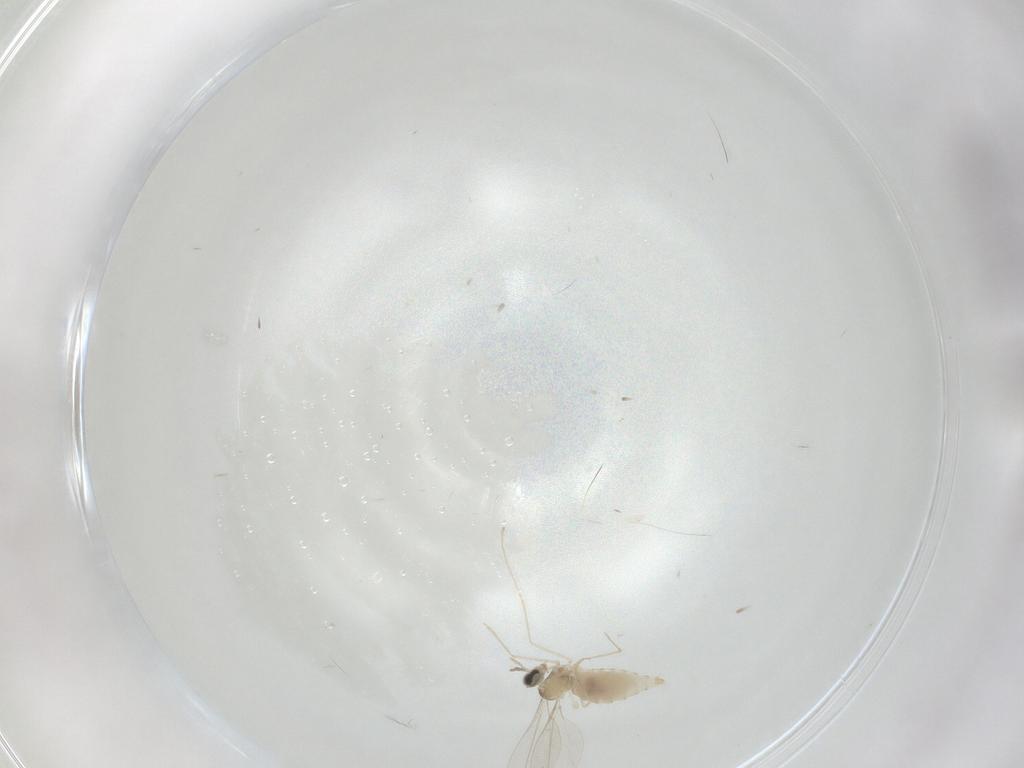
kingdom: Animalia
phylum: Arthropoda
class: Insecta
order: Diptera
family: Cecidomyiidae
